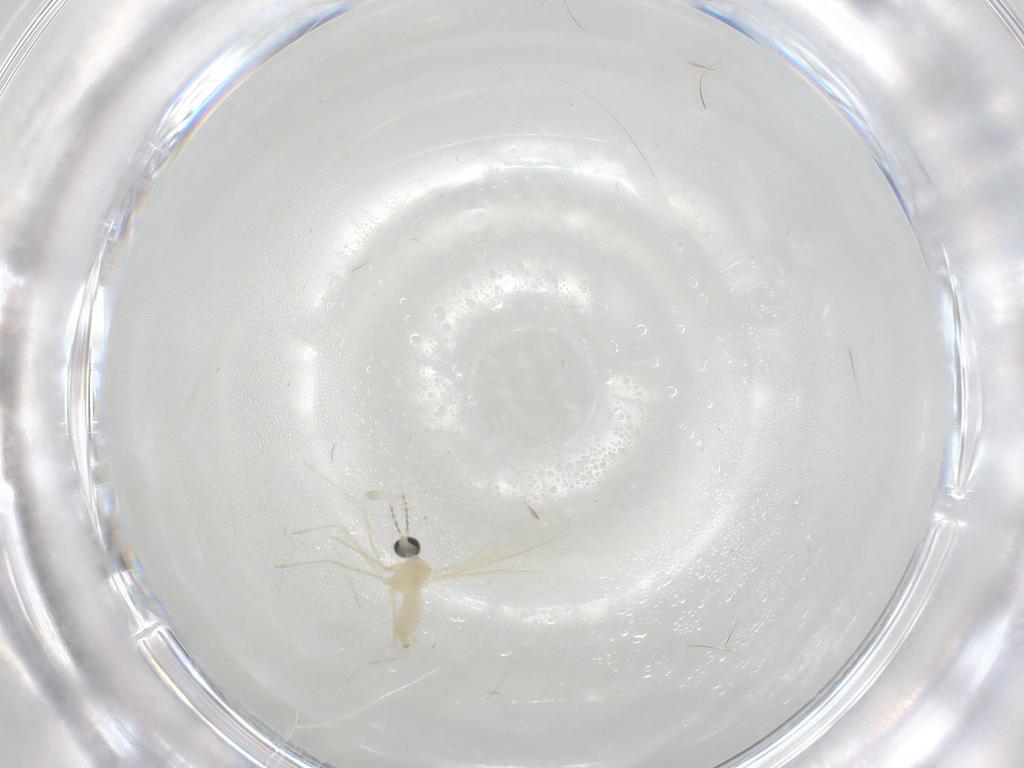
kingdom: Animalia
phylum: Arthropoda
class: Insecta
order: Diptera
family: Cecidomyiidae
